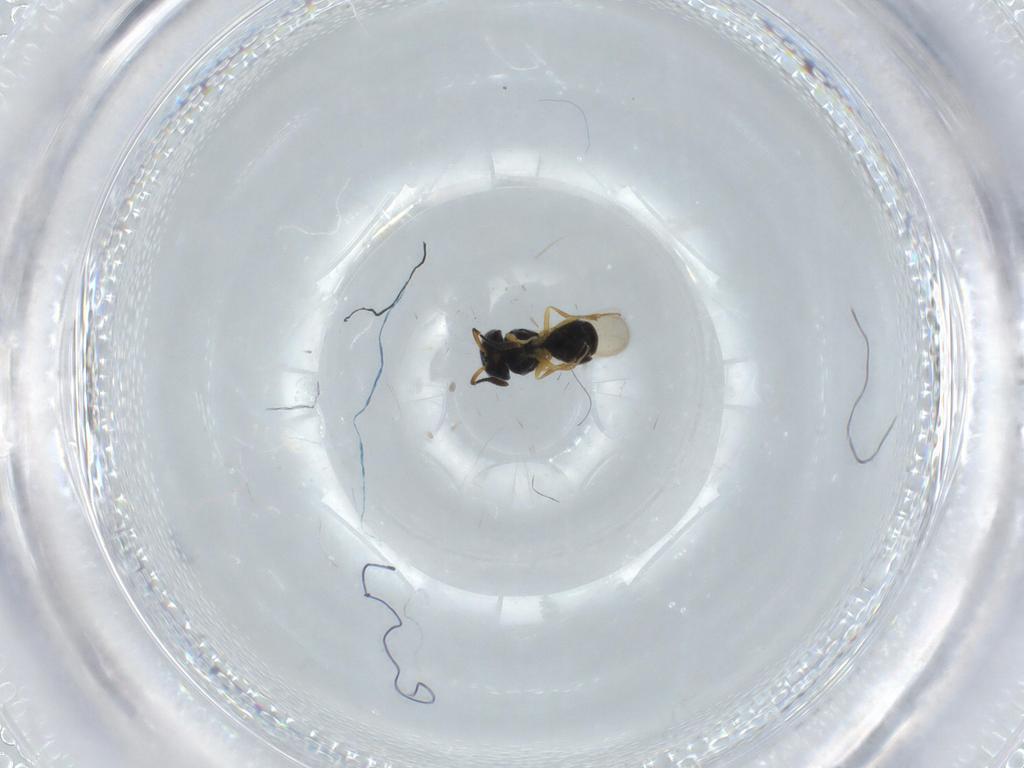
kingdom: Animalia
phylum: Arthropoda
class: Insecta
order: Hymenoptera
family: Scelionidae
